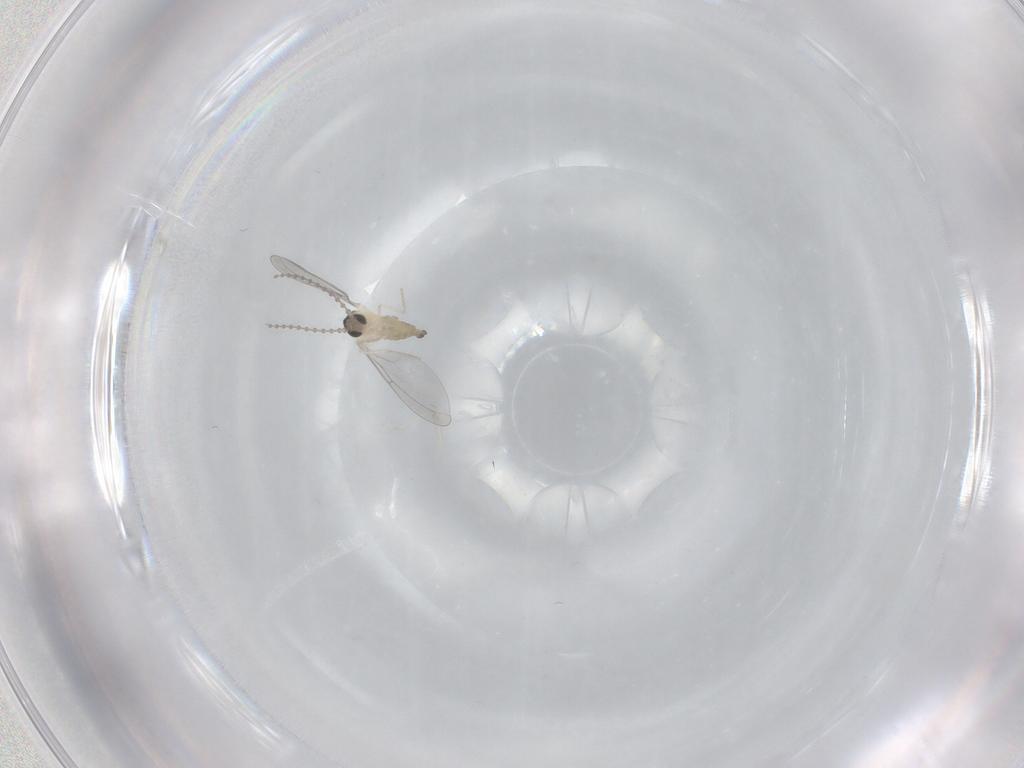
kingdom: Animalia
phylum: Arthropoda
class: Insecta
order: Diptera
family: Cecidomyiidae
